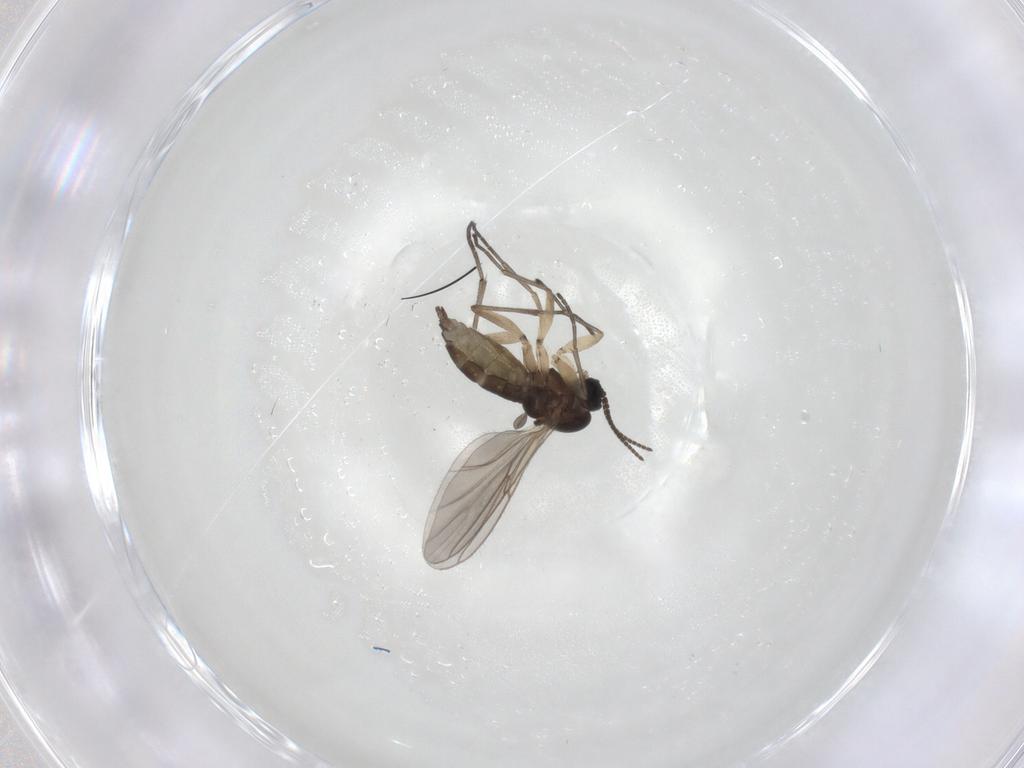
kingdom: Animalia
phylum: Arthropoda
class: Insecta
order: Diptera
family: Sciaridae
